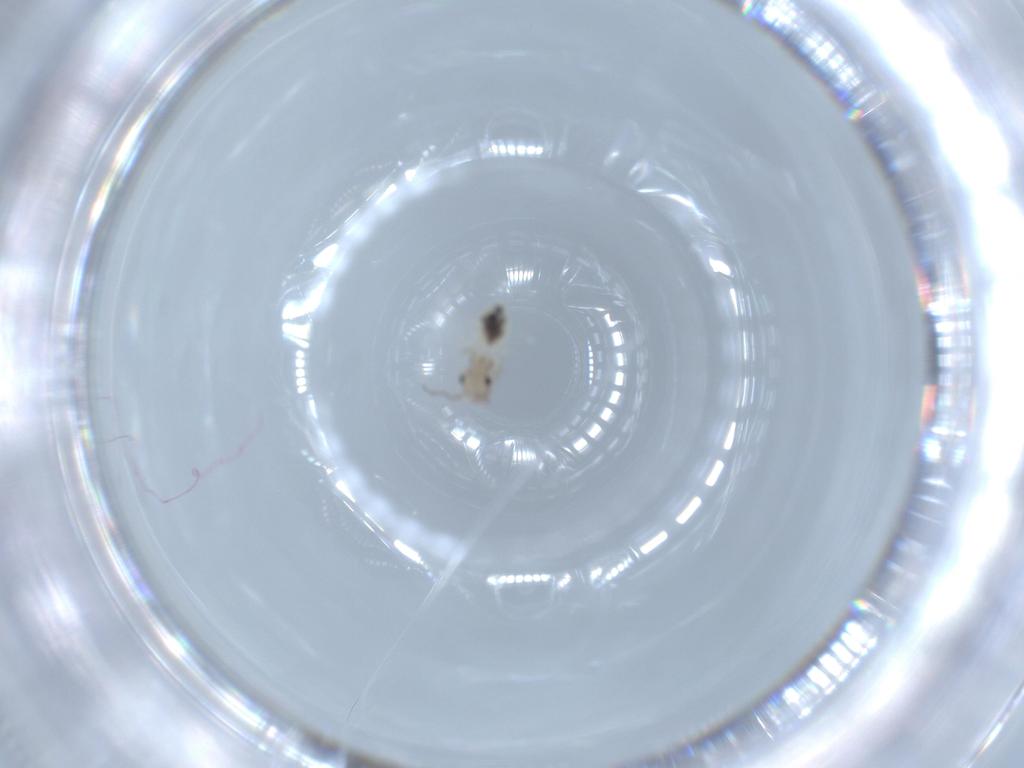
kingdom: Animalia
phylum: Arthropoda
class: Insecta
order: Psocodea
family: Lepidopsocidae
